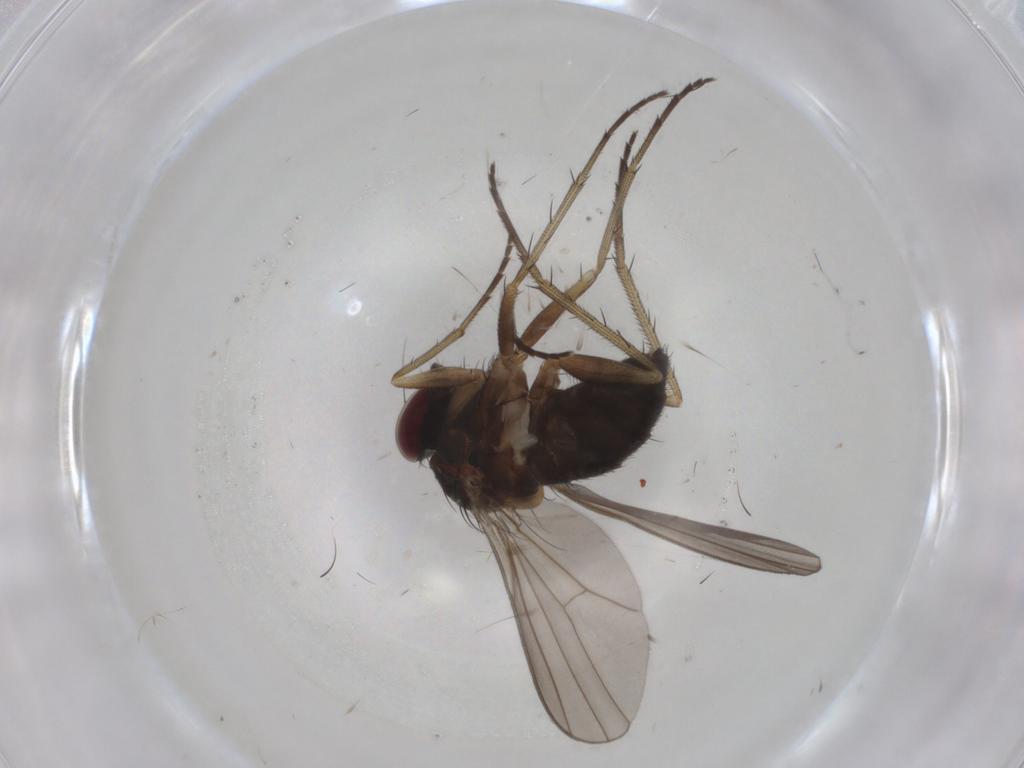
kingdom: Animalia
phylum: Arthropoda
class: Insecta
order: Diptera
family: Dolichopodidae
